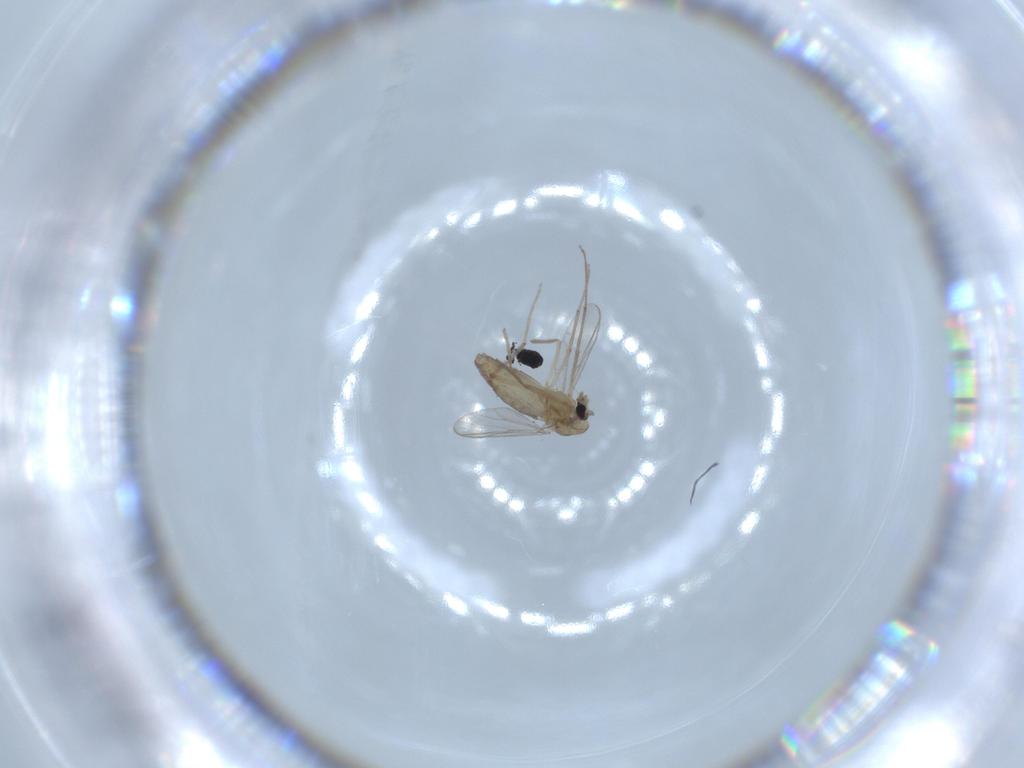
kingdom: Animalia
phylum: Arthropoda
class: Insecta
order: Diptera
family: Chironomidae
